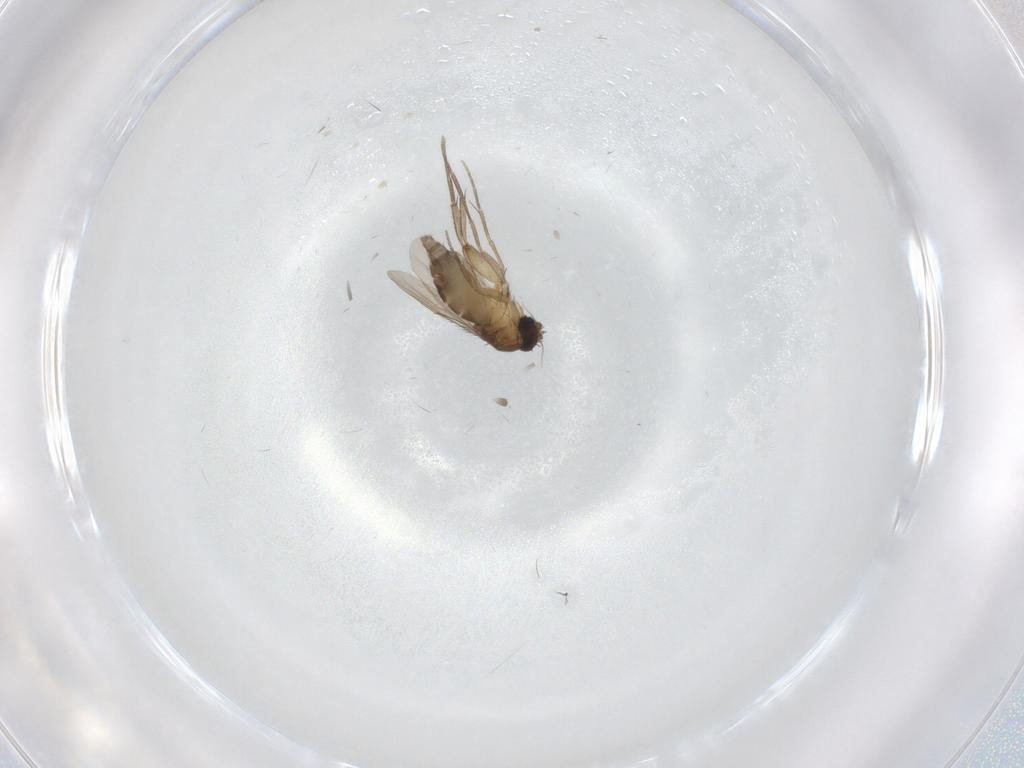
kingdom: Animalia
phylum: Arthropoda
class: Insecta
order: Diptera
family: Phoridae
